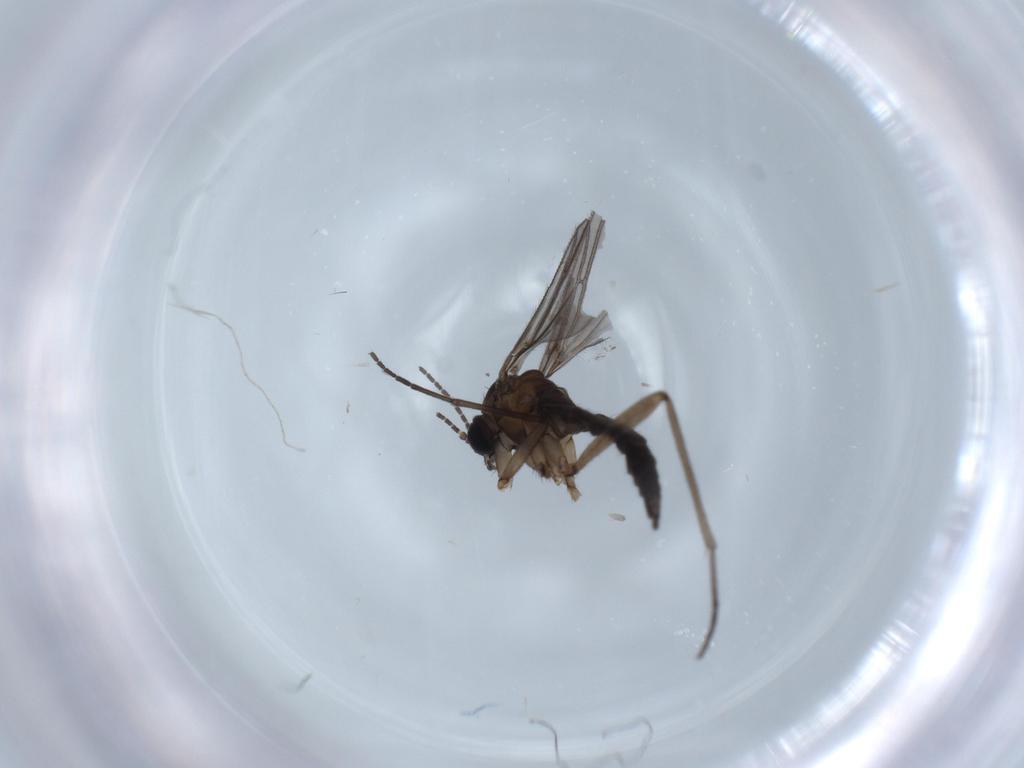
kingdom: Animalia
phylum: Arthropoda
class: Insecta
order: Diptera
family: Sciaridae
